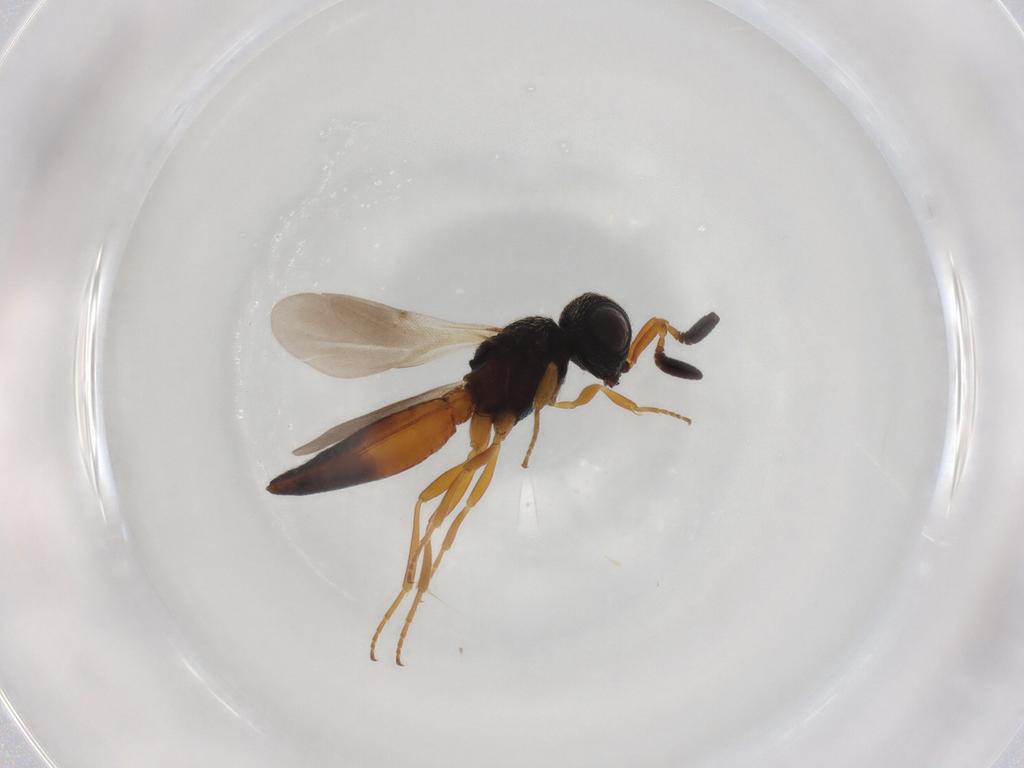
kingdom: Animalia
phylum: Arthropoda
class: Insecta
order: Hymenoptera
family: Scelionidae
